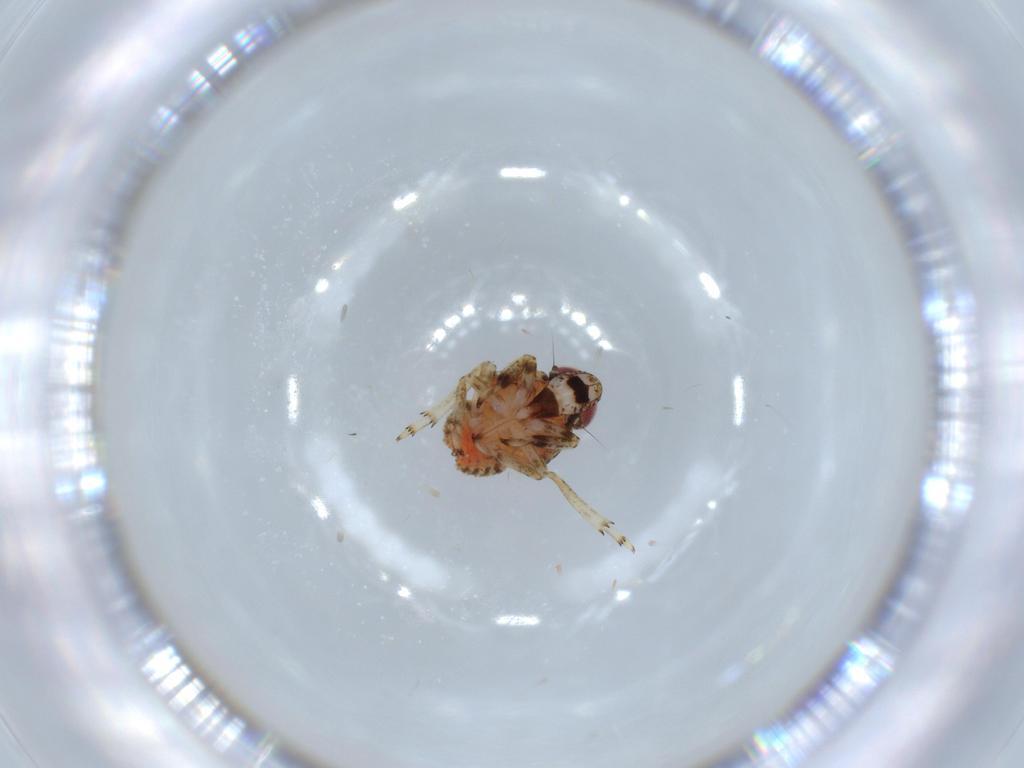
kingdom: Animalia
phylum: Arthropoda
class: Insecta
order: Hemiptera
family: Issidae
